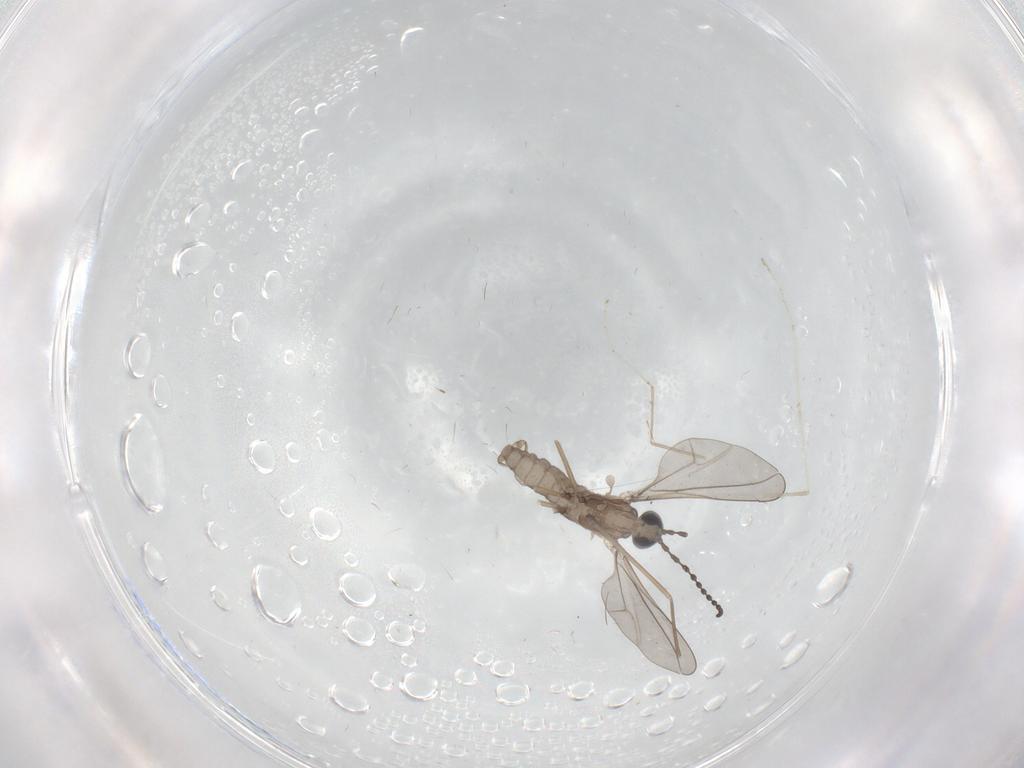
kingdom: Animalia
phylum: Arthropoda
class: Insecta
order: Diptera
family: Cecidomyiidae
